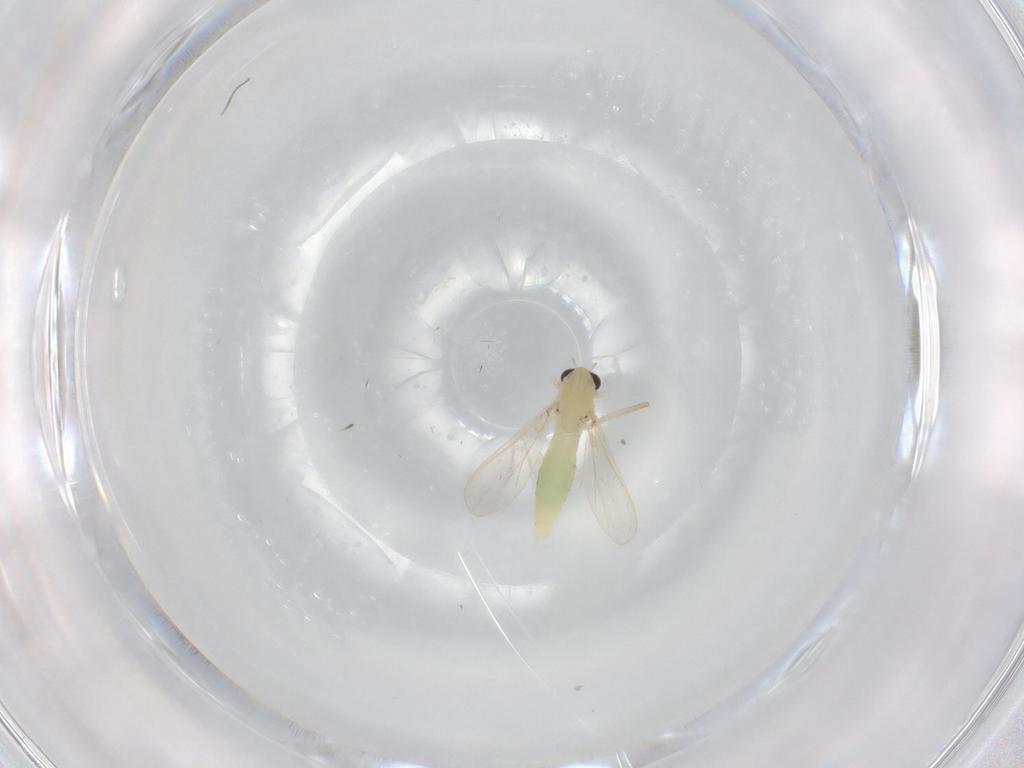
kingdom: Animalia
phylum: Arthropoda
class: Insecta
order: Diptera
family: Chironomidae
